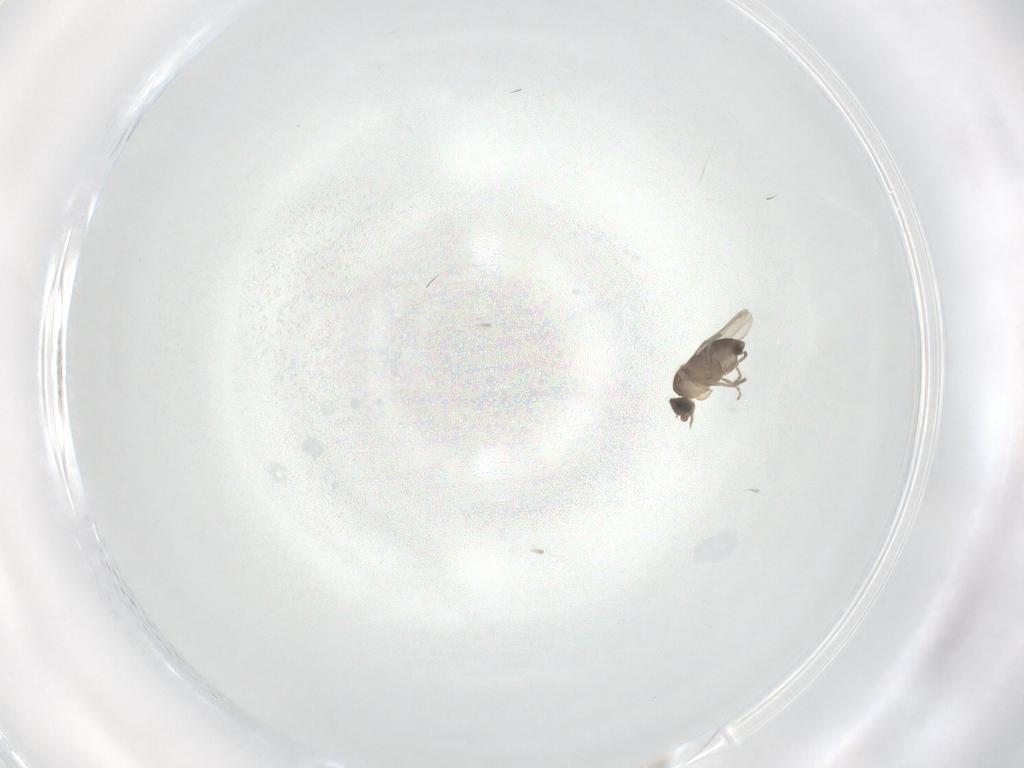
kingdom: Animalia
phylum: Arthropoda
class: Insecta
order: Diptera
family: Phoridae
